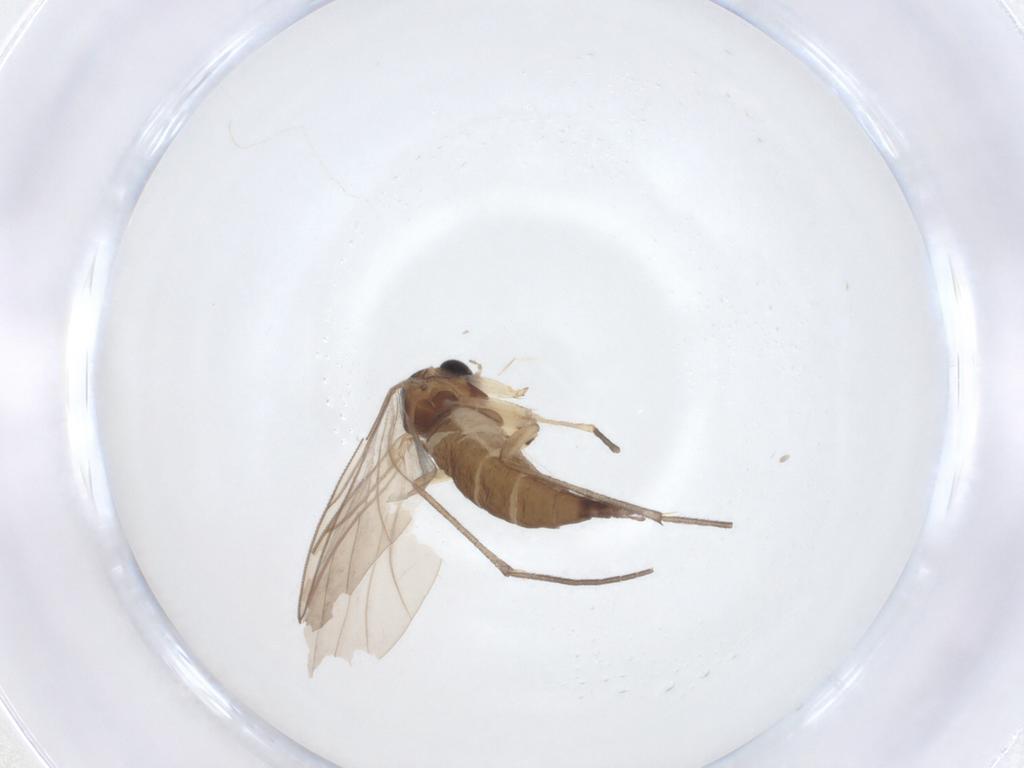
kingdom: Animalia
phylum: Arthropoda
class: Insecta
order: Diptera
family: Sciaridae
